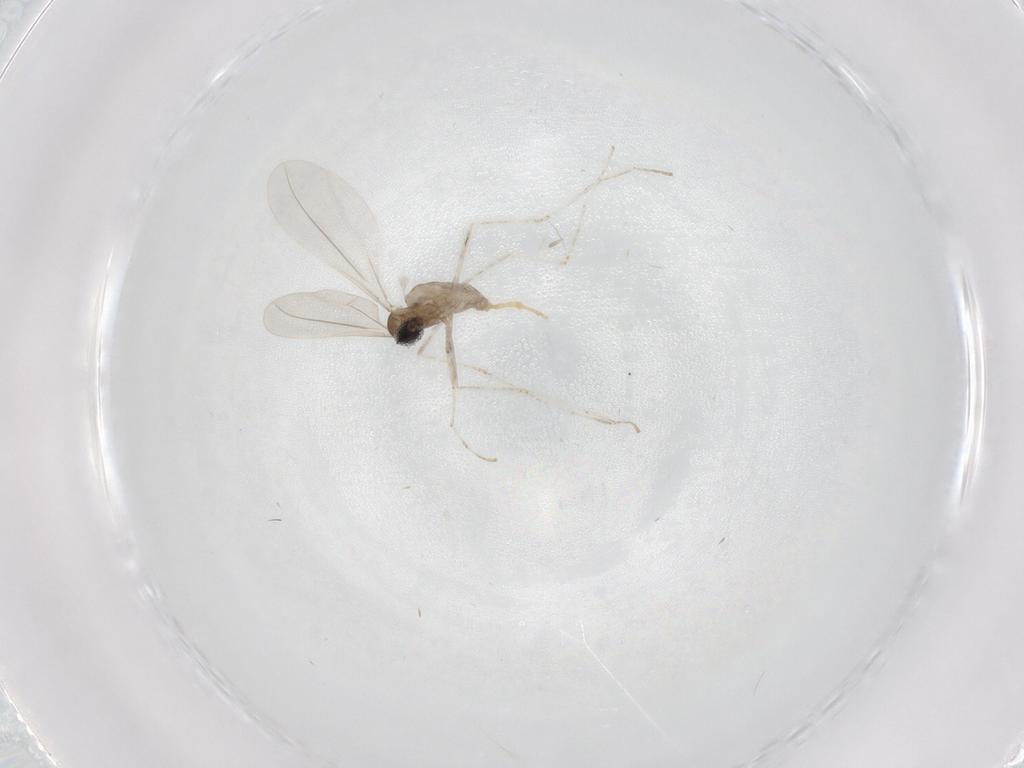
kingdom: Animalia
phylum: Arthropoda
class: Insecta
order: Diptera
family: Cecidomyiidae
